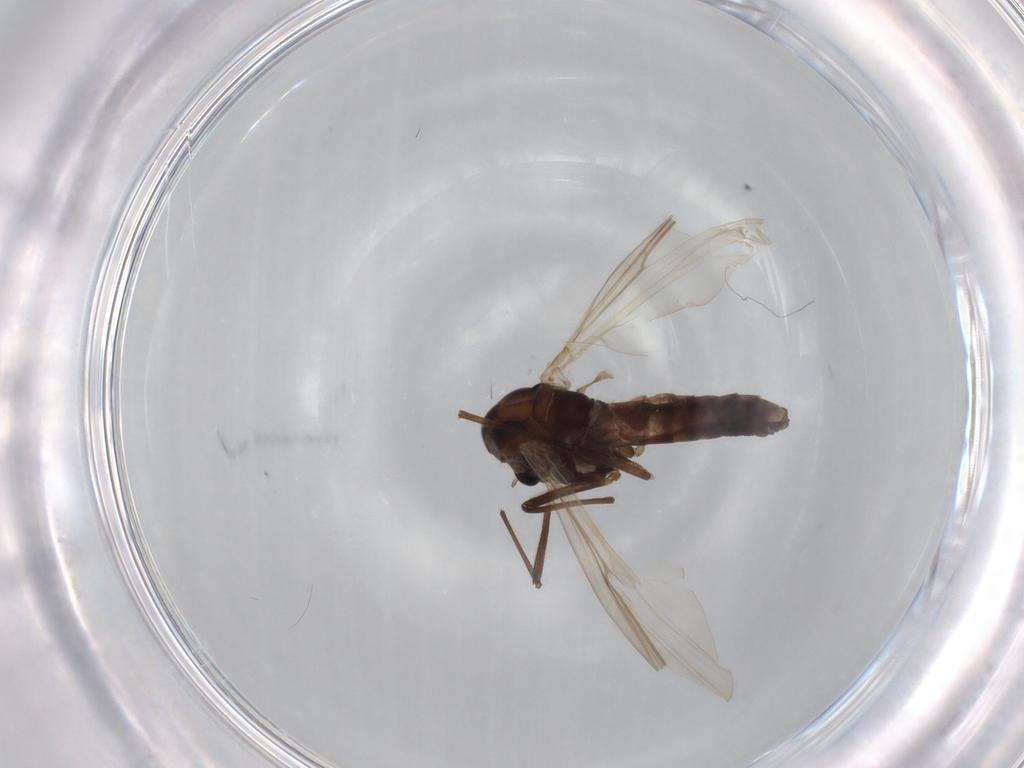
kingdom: Animalia
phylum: Arthropoda
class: Insecta
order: Diptera
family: Chironomidae
